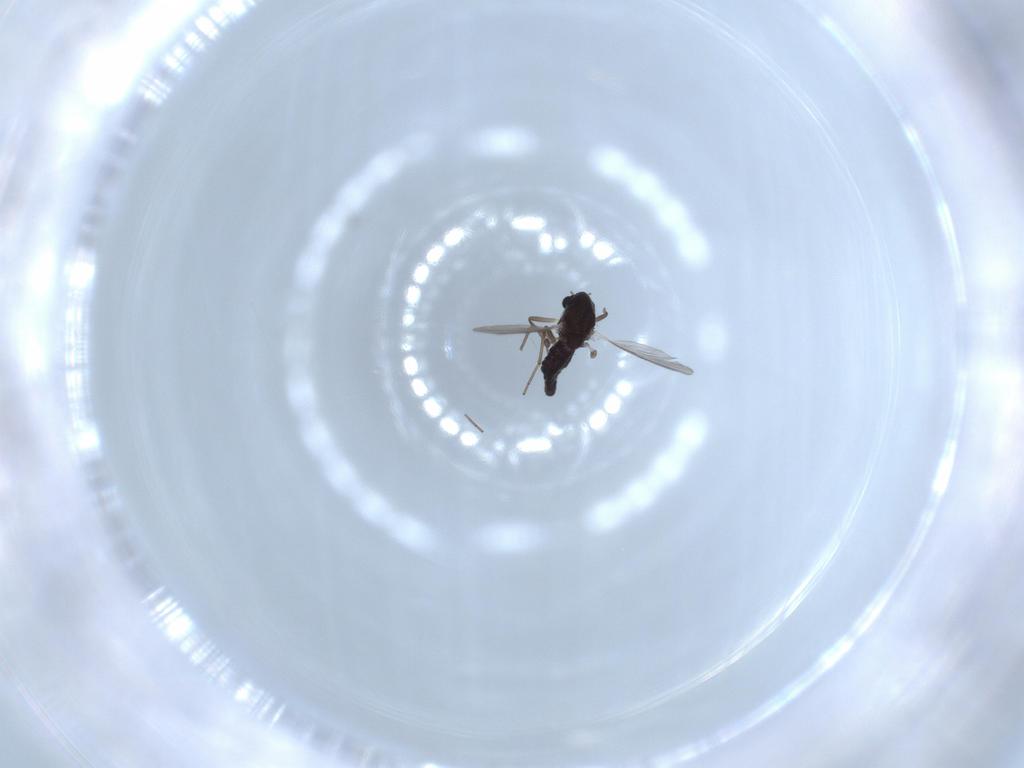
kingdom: Animalia
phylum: Arthropoda
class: Insecta
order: Diptera
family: Chironomidae
